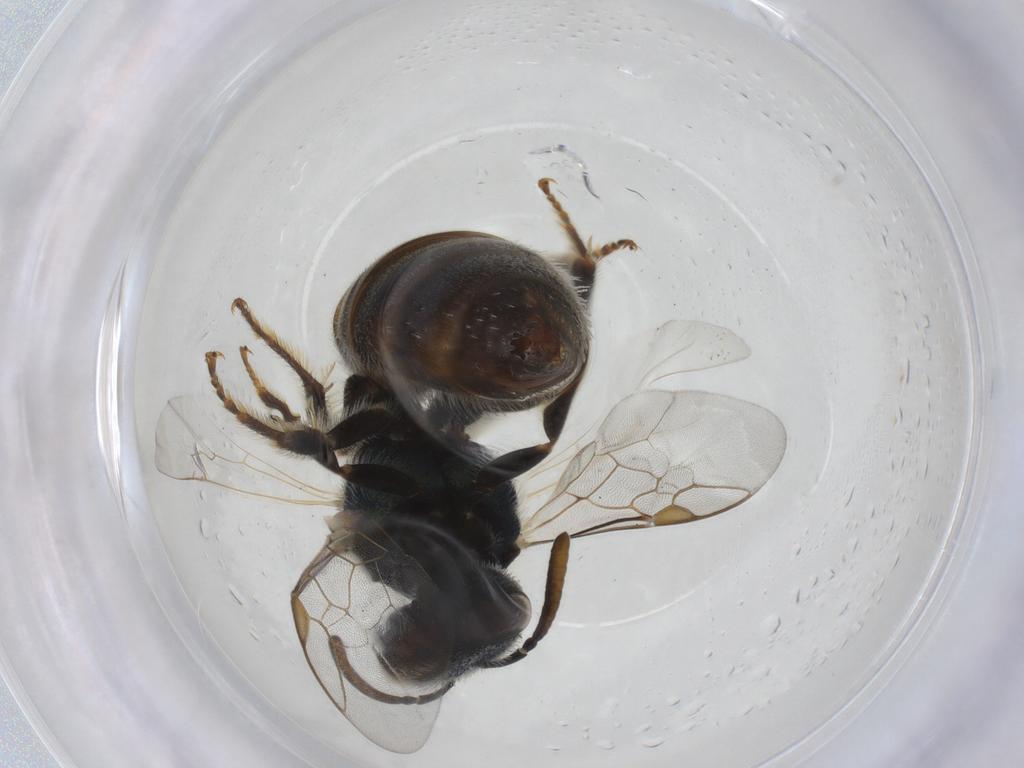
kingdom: Animalia
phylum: Arthropoda
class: Insecta
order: Hymenoptera
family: Halictidae
